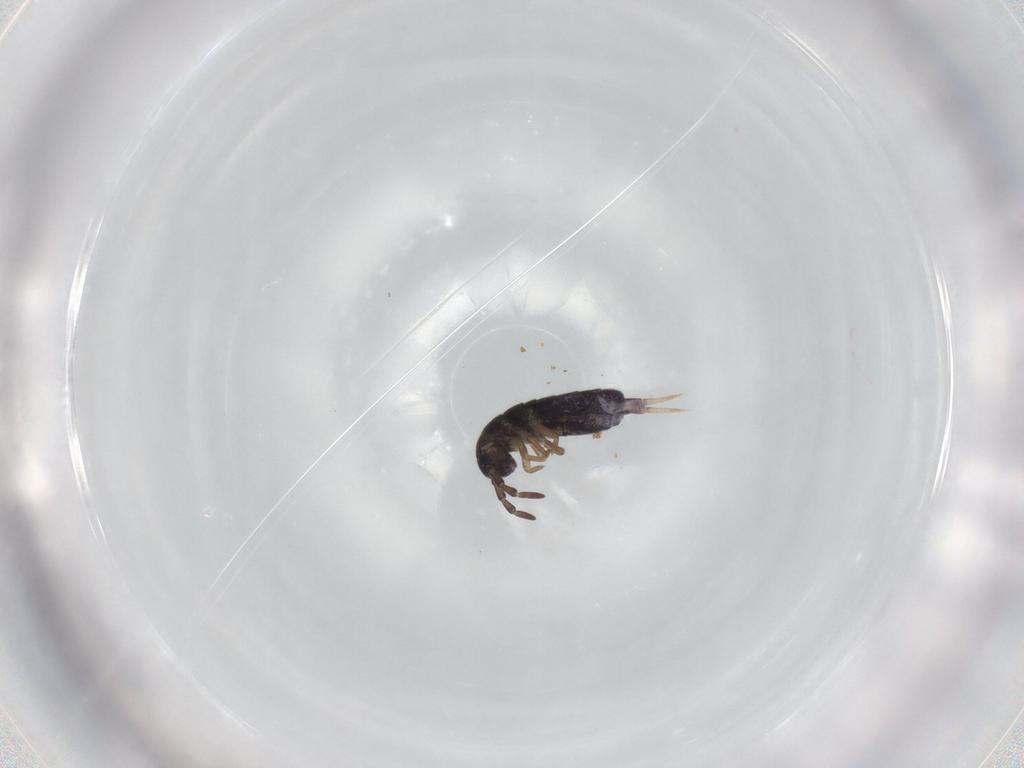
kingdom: Animalia
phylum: Arthropoda
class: Collembola
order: Entomobryomorpha
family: Isotomidae
